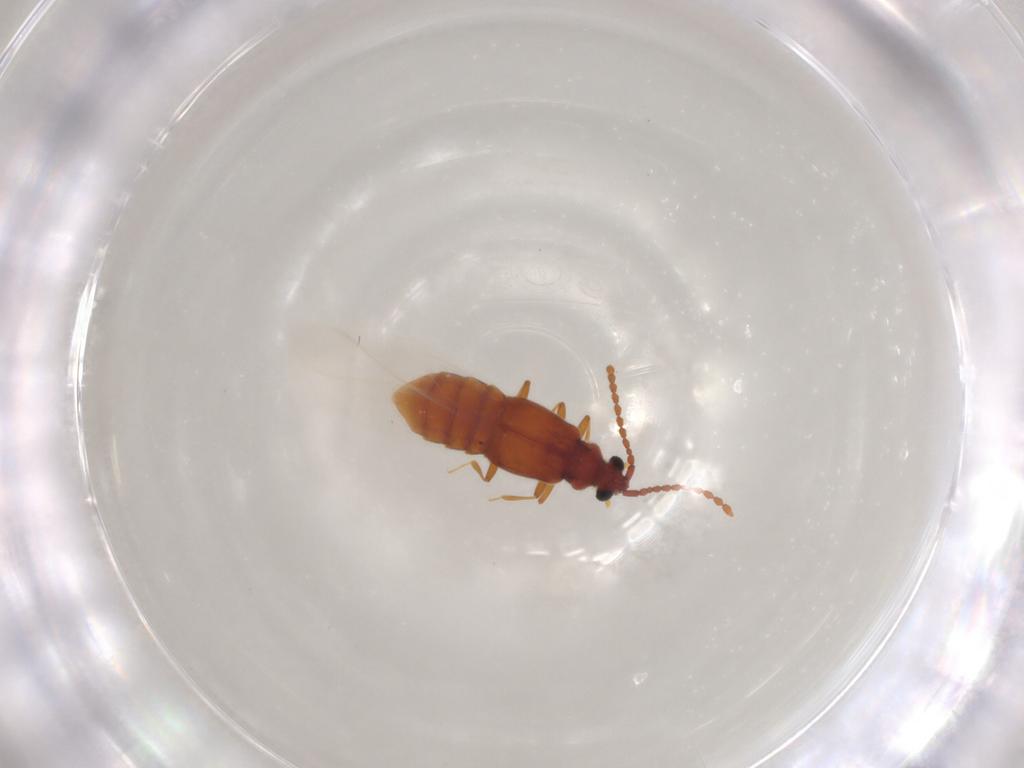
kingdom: Animalia
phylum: Arthropoda
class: Insecta
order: Coleoptera
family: Staphylinidae
